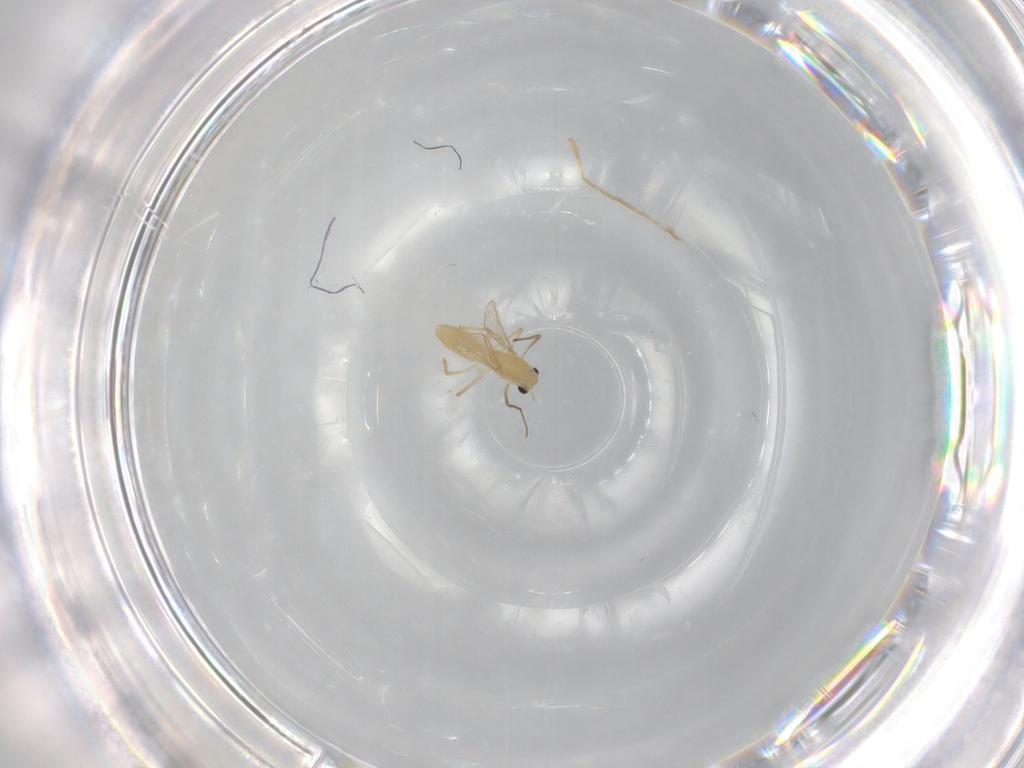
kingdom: Animalia
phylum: Arthropoda
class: Insecta
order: Diptera
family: Chironomidae
